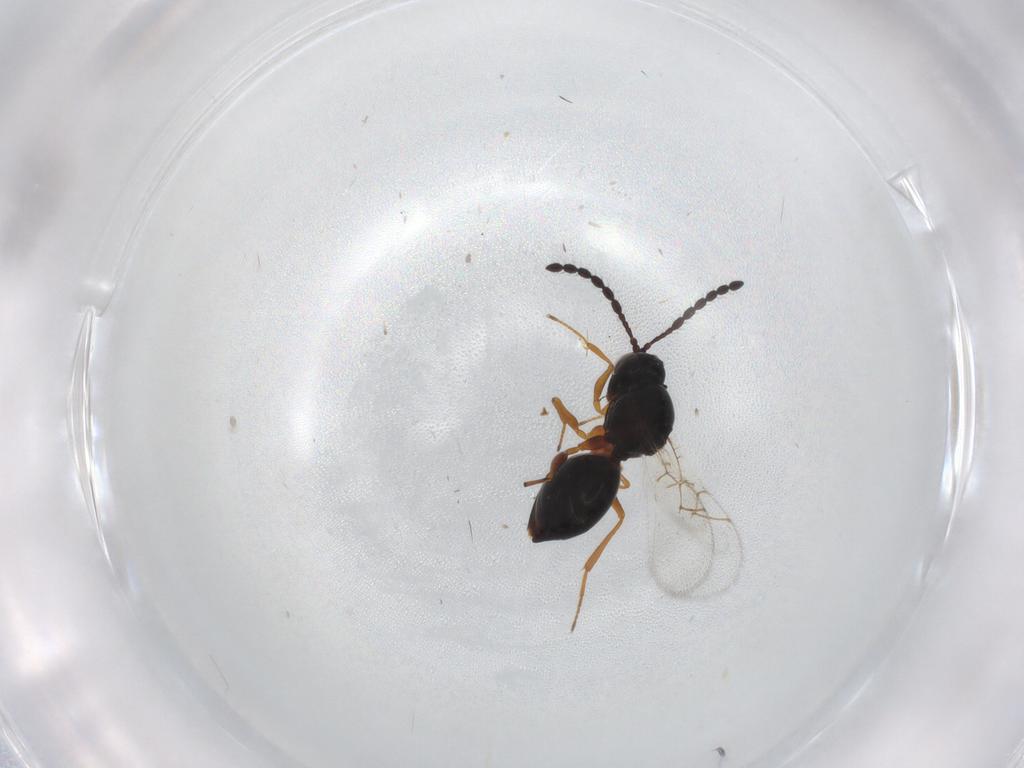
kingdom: Animalia
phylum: Arthropoda
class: Insecta
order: Hymenoptera
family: Figitidae
